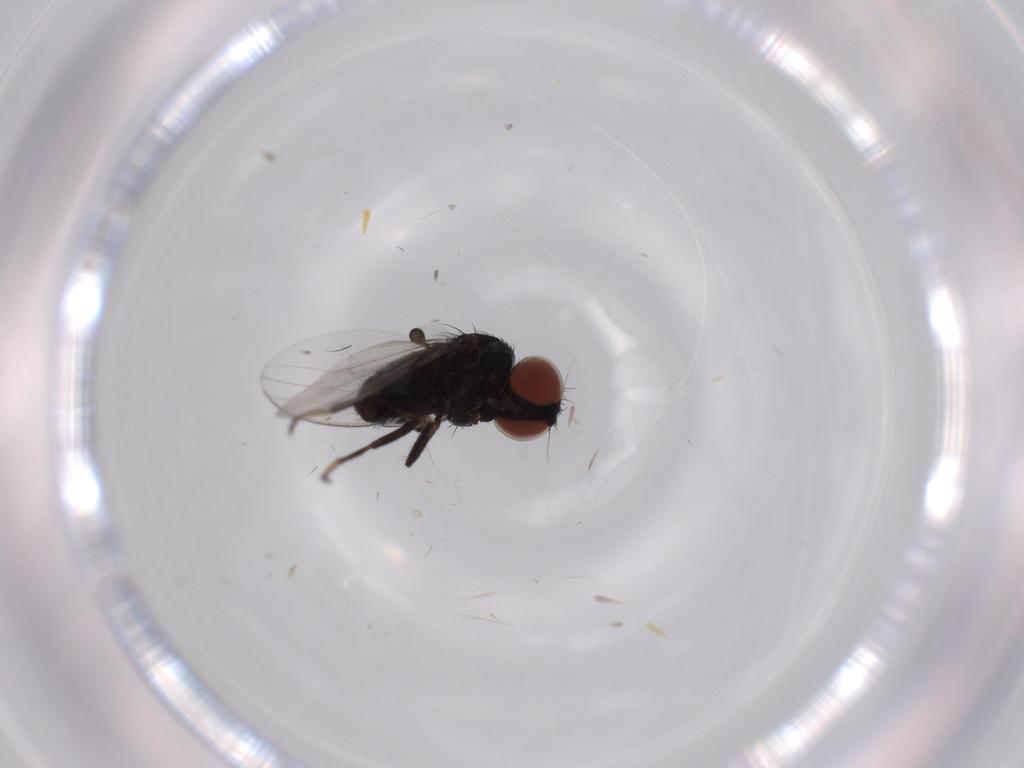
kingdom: Animalia
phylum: Arthropoda
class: Insecta
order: Diptera
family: Milichiidae
